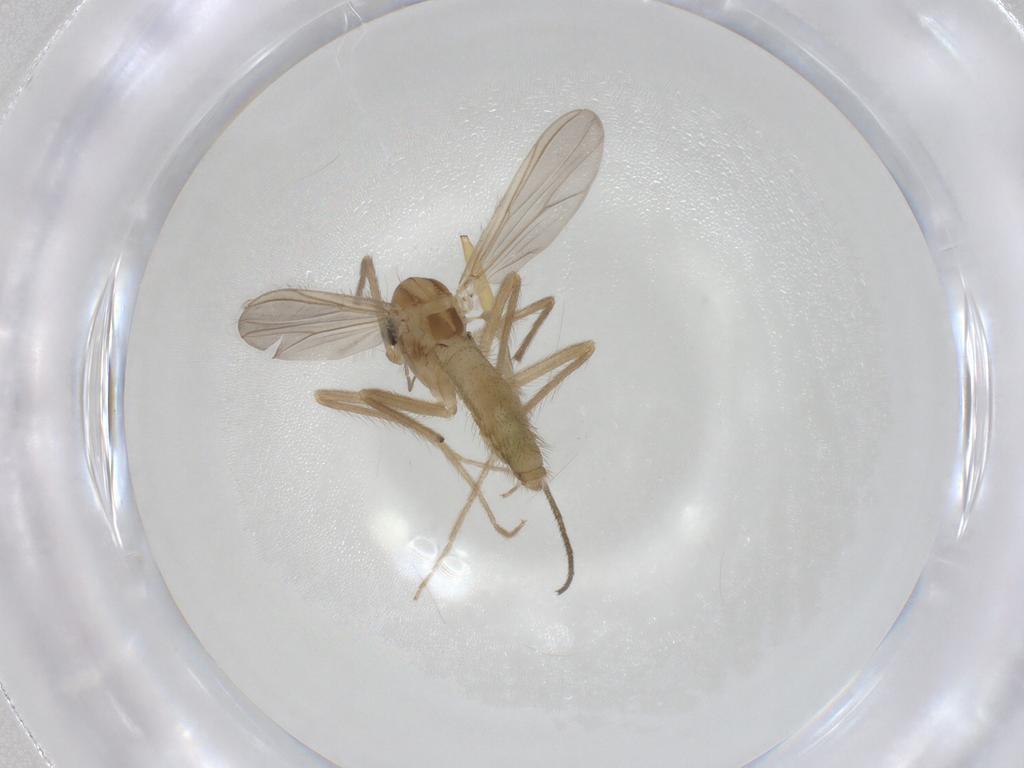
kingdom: Animalia
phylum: Arthropoda
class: Insecta
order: Diptera
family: Chironomidae
